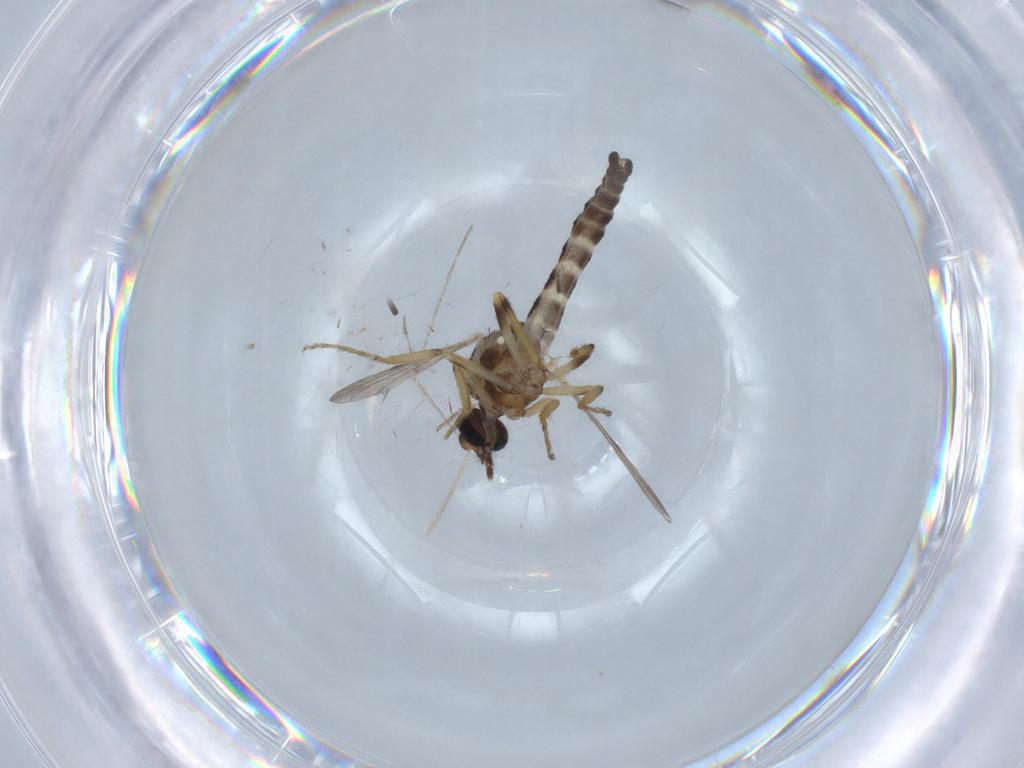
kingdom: Animalia
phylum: Arthropoda
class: Insecta
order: Diptera
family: Ceratopogonidae
